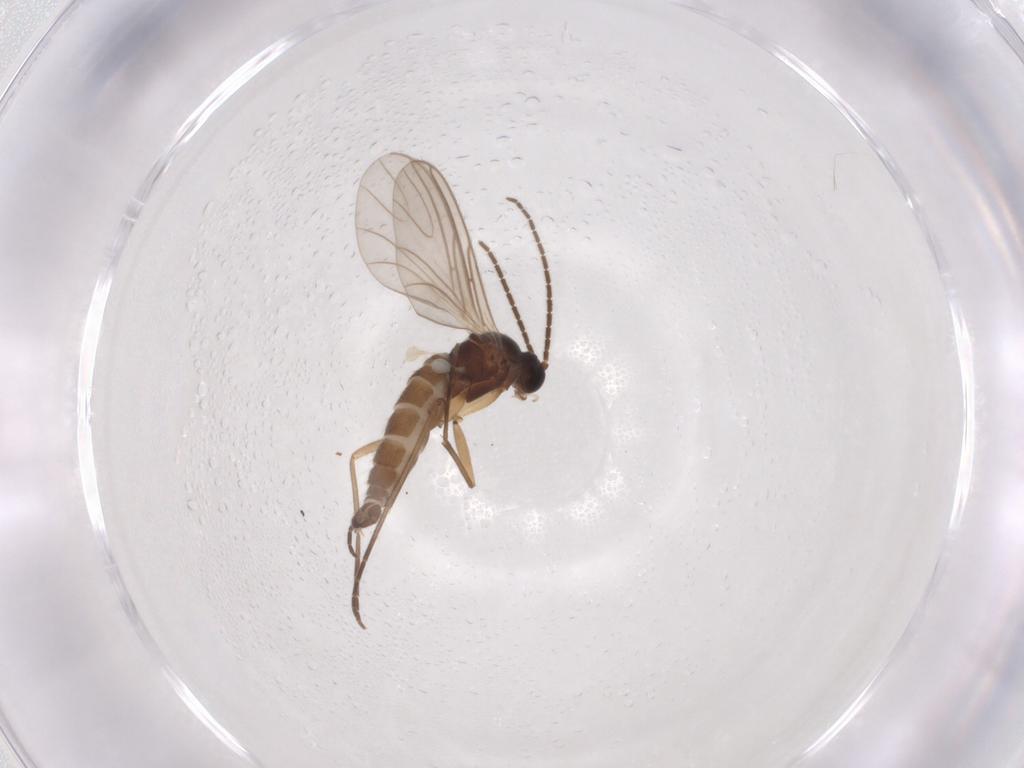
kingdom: Animalia
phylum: Arthropoda
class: Insecta
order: Diptera
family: Sciaridae
